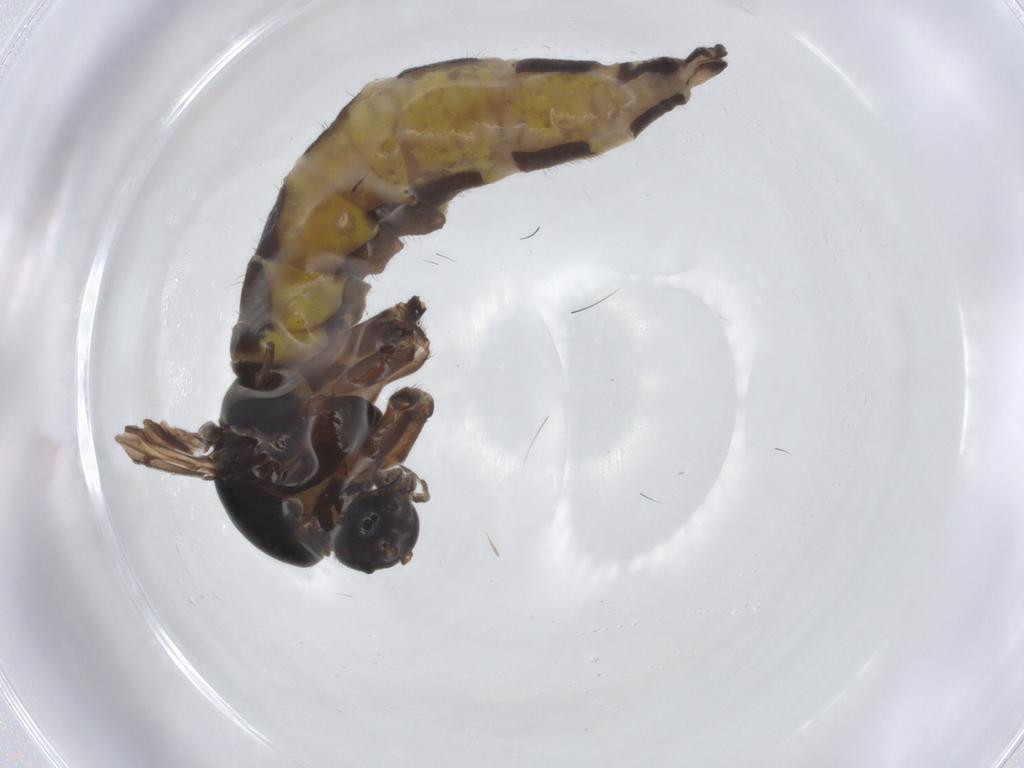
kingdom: Animalia
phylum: Arthropoda
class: Insecta
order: Diptera
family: Sciaridae
